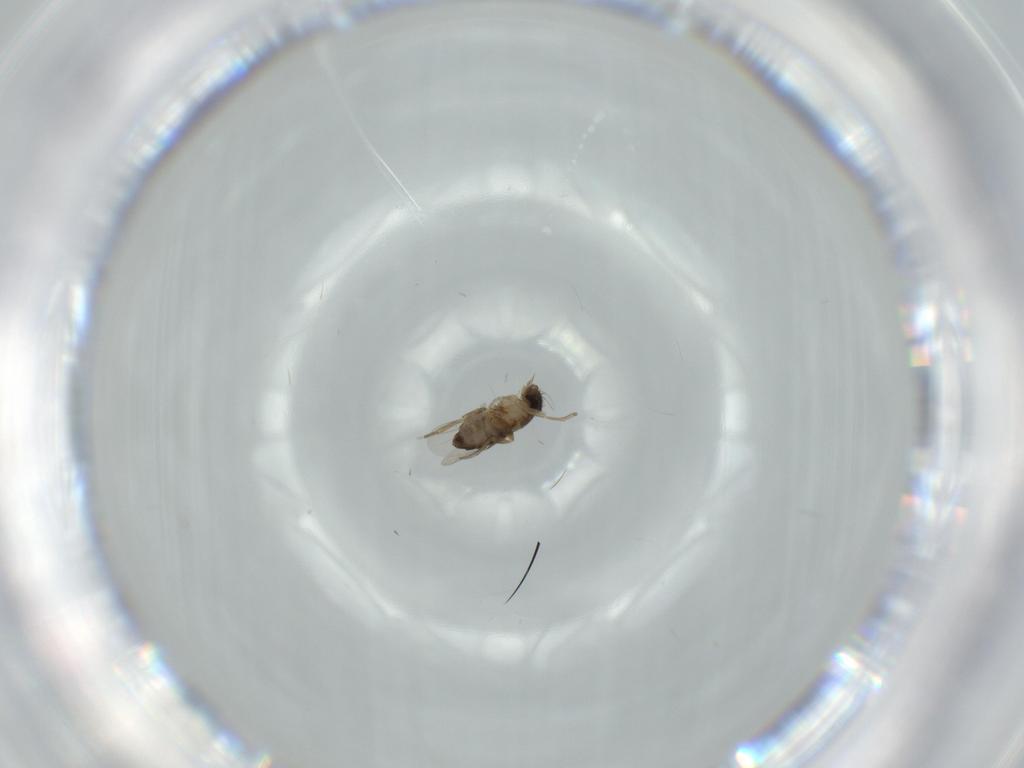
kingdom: Animalia
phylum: Arthropoda
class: Insecta
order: Diptera
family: Phoridae
